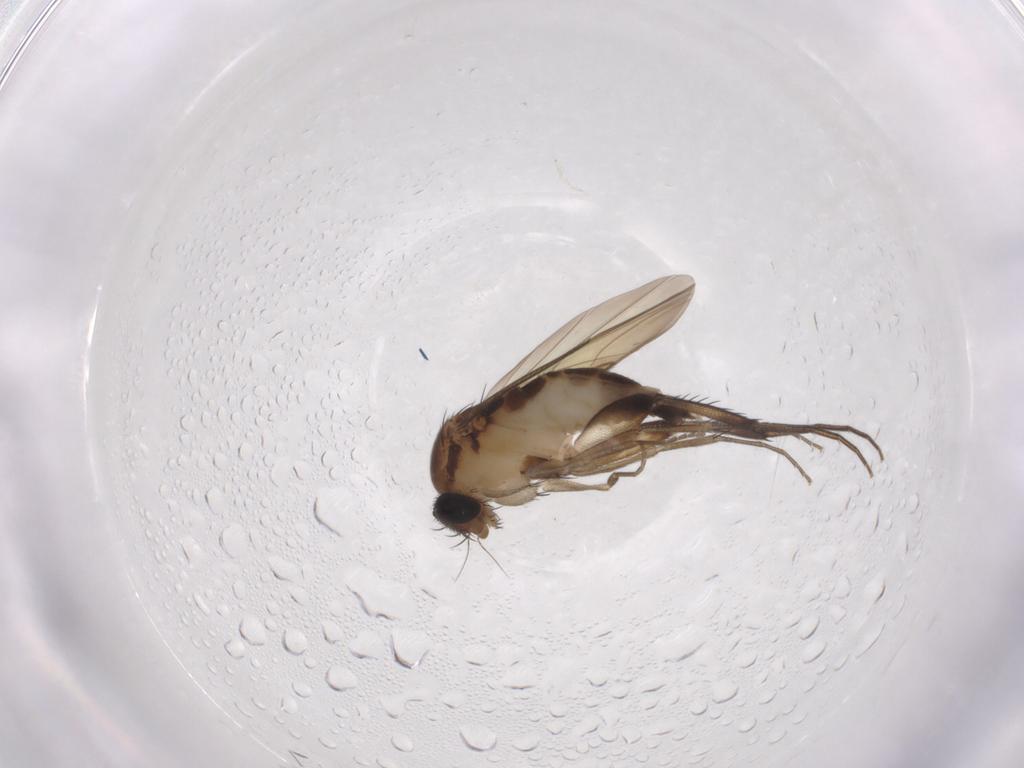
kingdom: Animalia
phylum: Arthropoda
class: Insecta
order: Diptera
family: Phoridae
